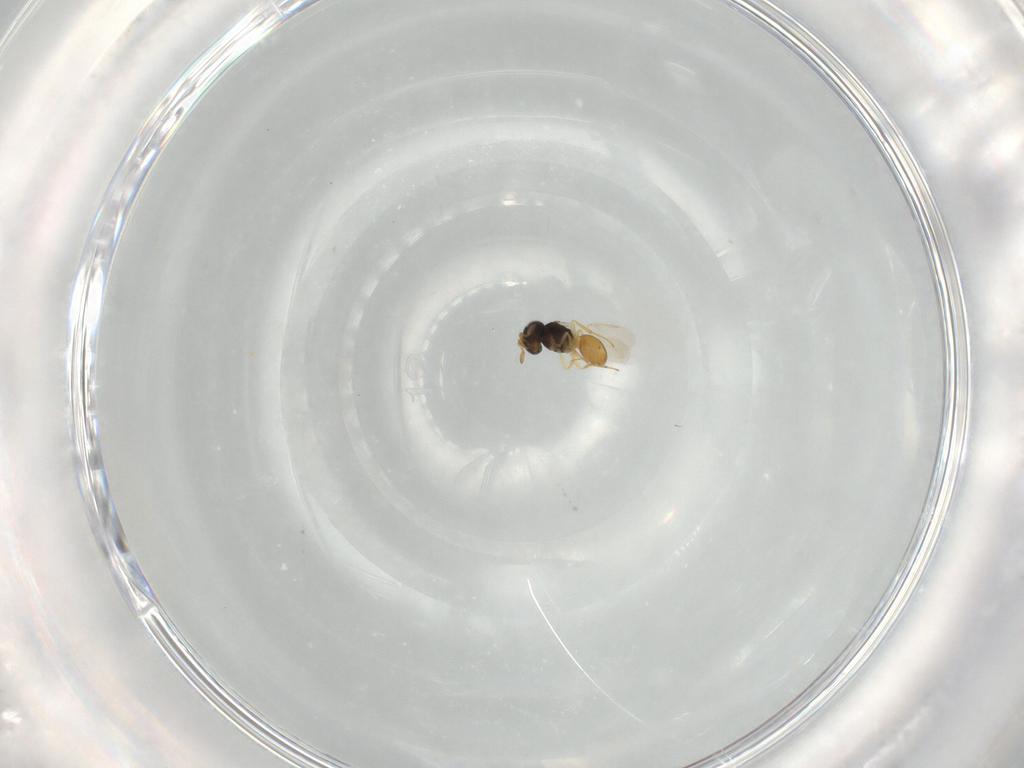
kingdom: Animalia
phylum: Arthropoda
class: Insecta
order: Hymenoptera
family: Scelionidae
